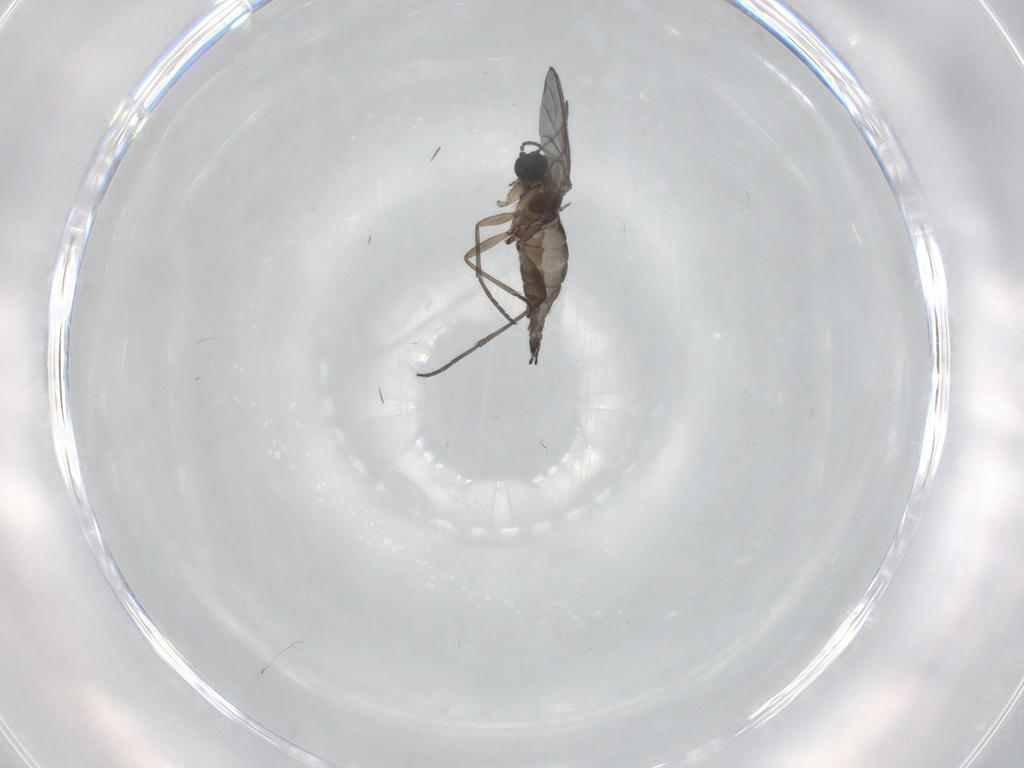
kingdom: Animalia
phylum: Arthropoda
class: Insecta
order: Diptera
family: Sciaridae
